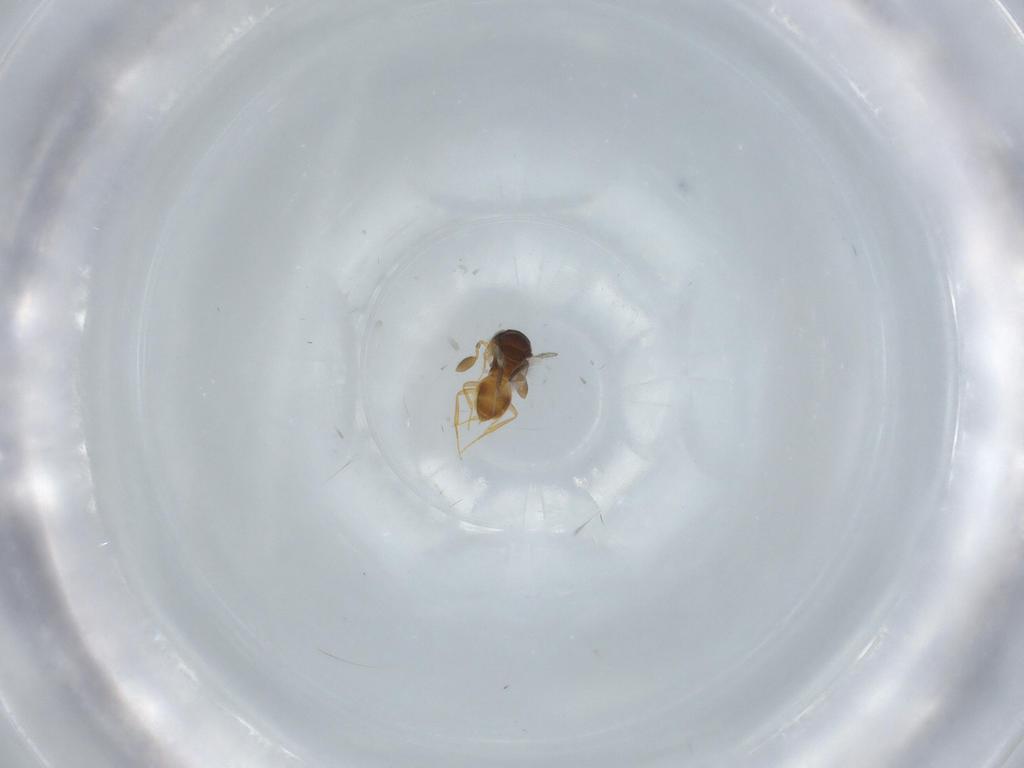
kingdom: Animalia
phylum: Arthropoda
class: Insecta
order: Hymenoptera
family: Scelionidae
